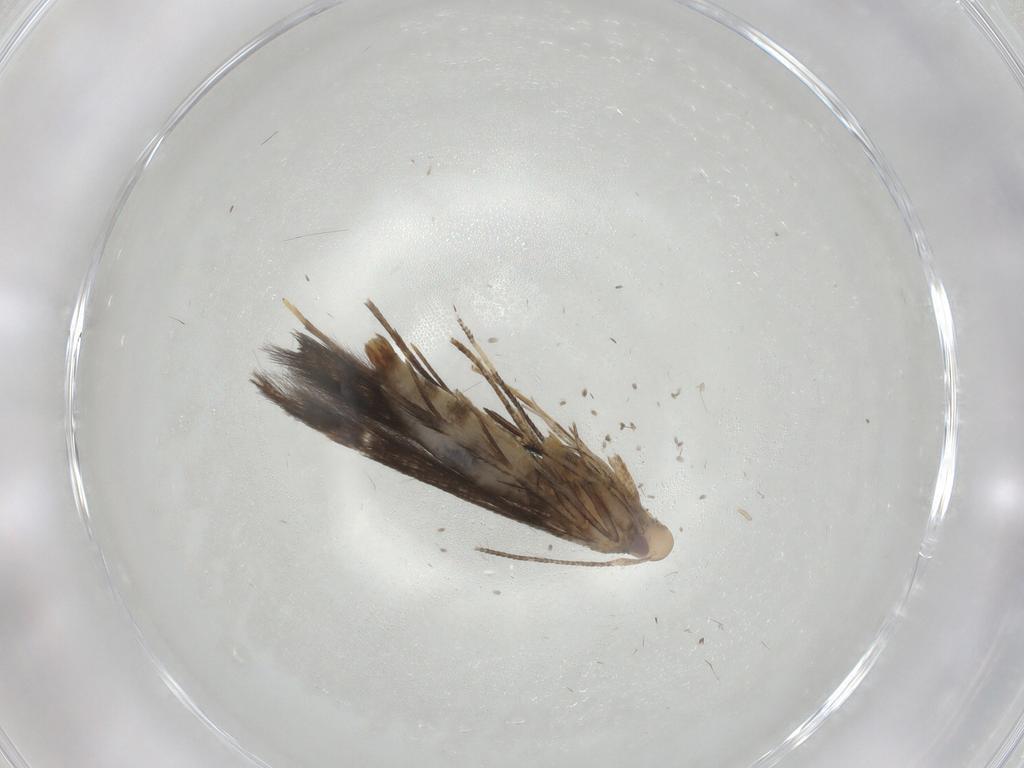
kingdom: Animalia
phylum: Arthropoda
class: Insecta
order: Lepidoptera
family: Cosmopterigidae
